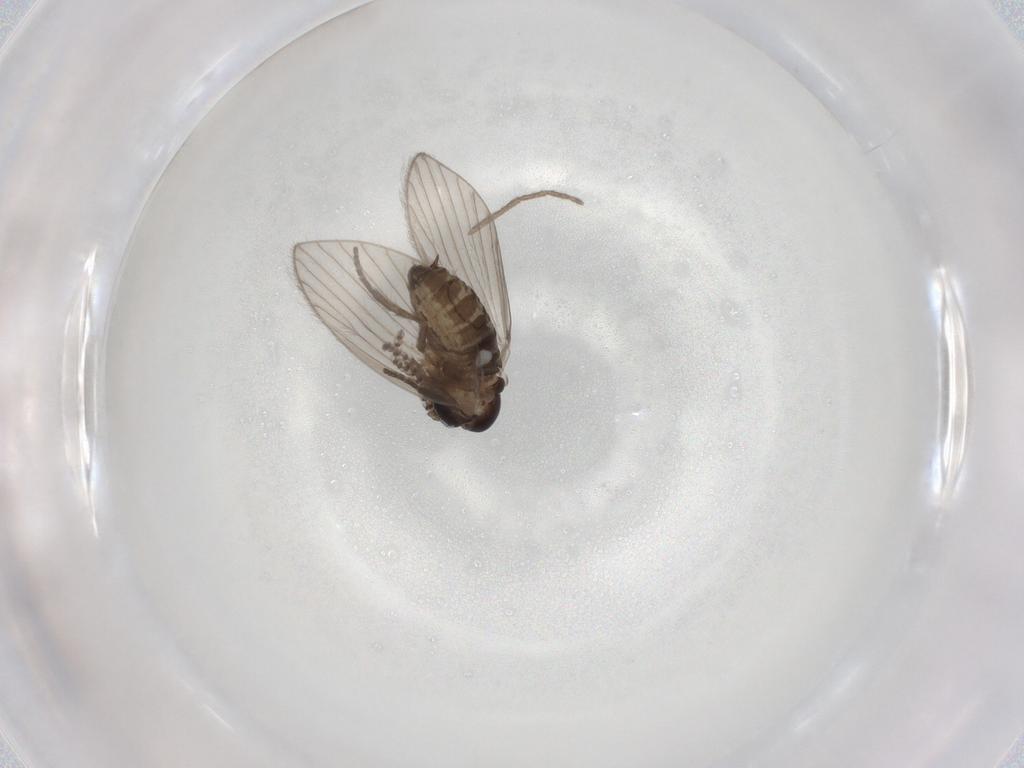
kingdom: Animalia
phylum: Arthropoda
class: Insecta
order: Diptera
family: Psychodidae
